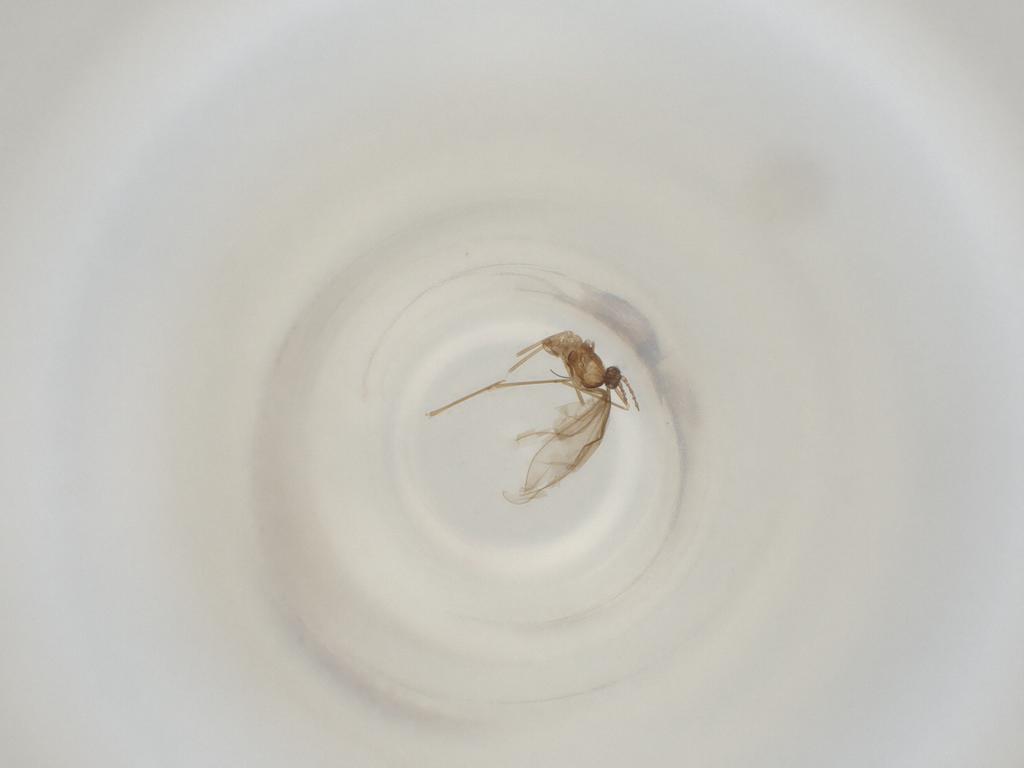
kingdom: Animalia
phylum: Arthropoda
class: Insecta
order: Diptera
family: Cecidomyiidae
